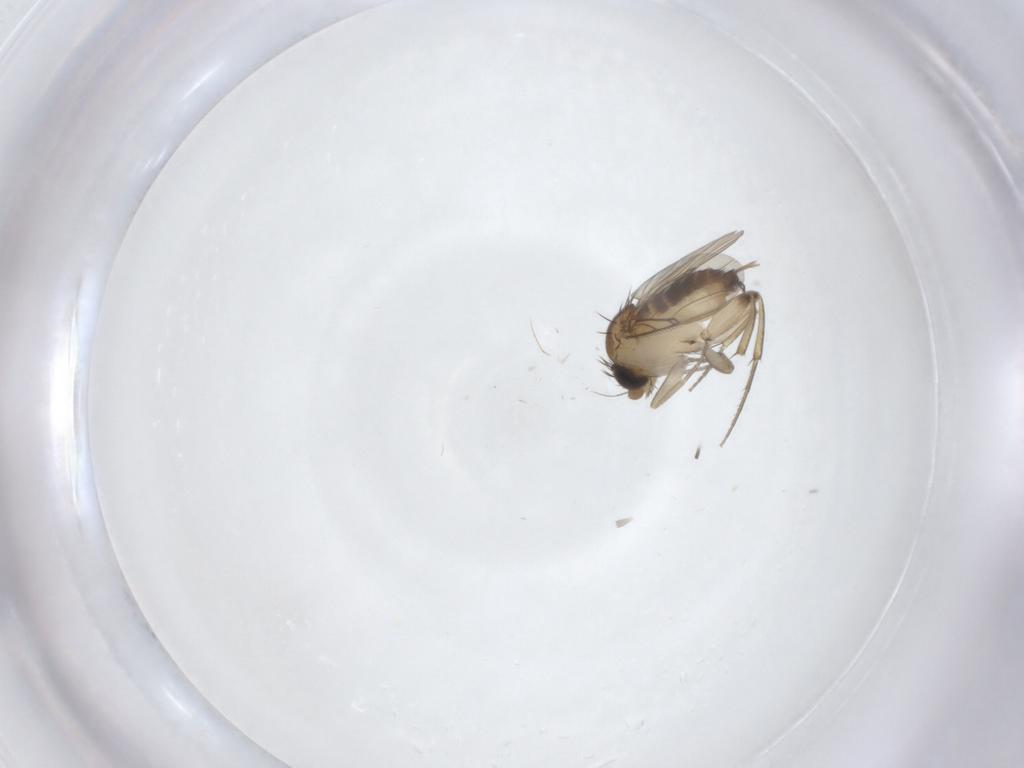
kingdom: Animalia
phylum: Arthropoda
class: Insecta
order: Diptera
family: Phoridae
